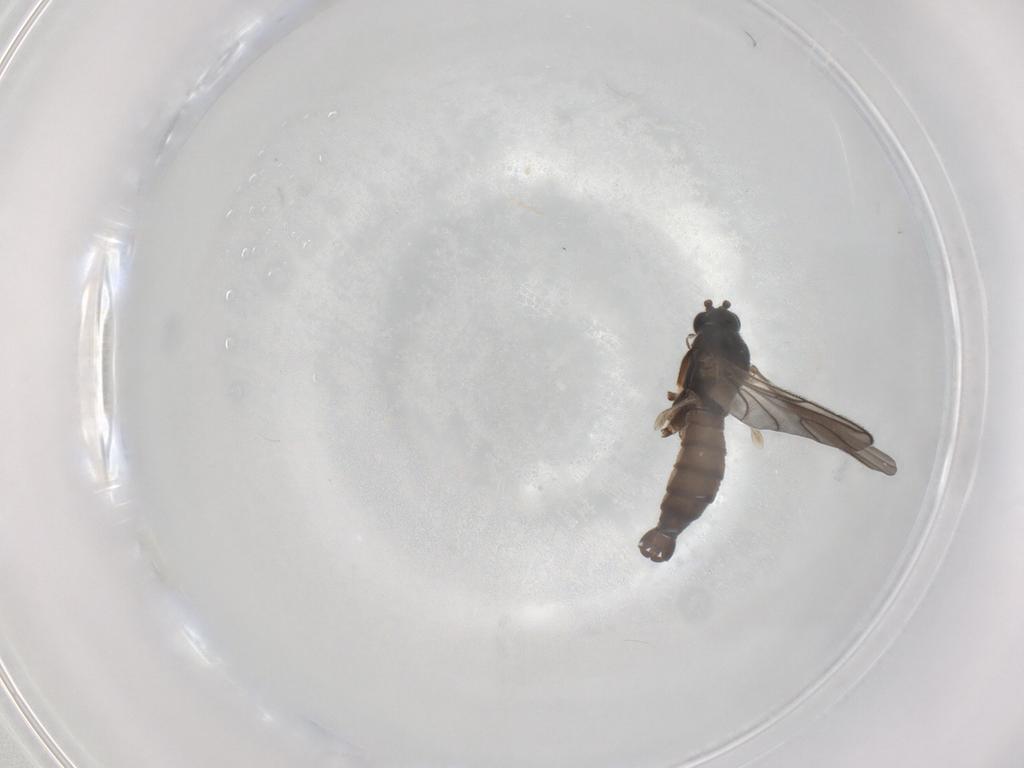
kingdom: Animalia
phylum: Arthropoda
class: Insecta
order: Diptera
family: Sciaridae
